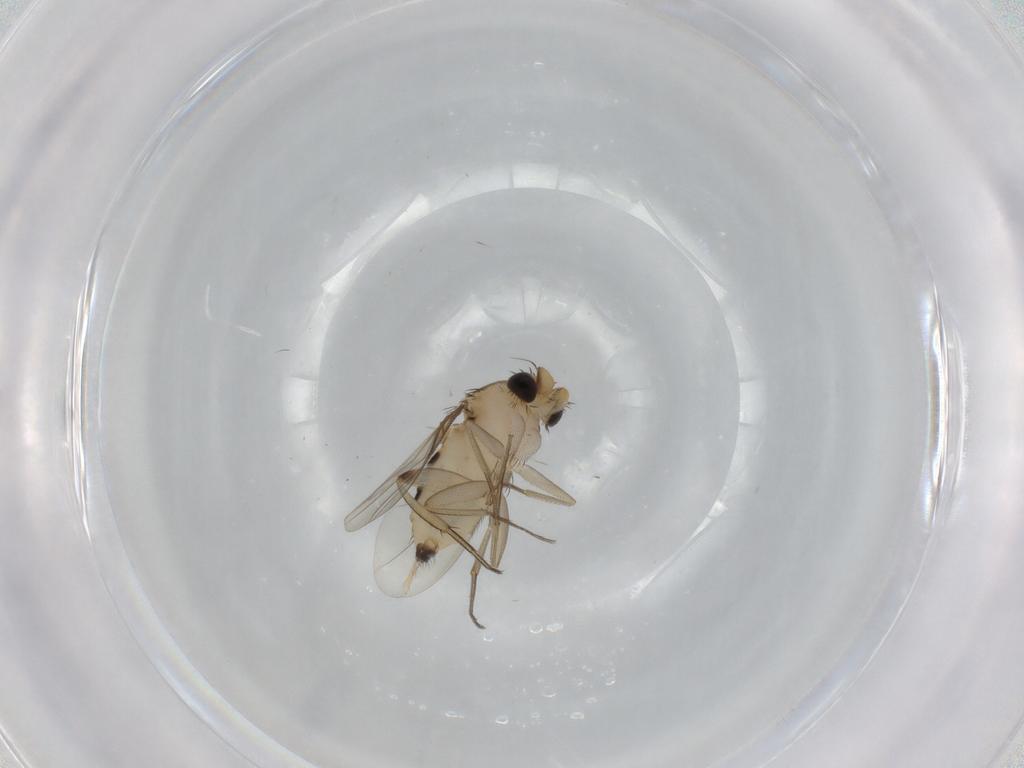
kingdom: Animalia
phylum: Arthropoda
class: Insecta
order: Diptera
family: Phoridae
